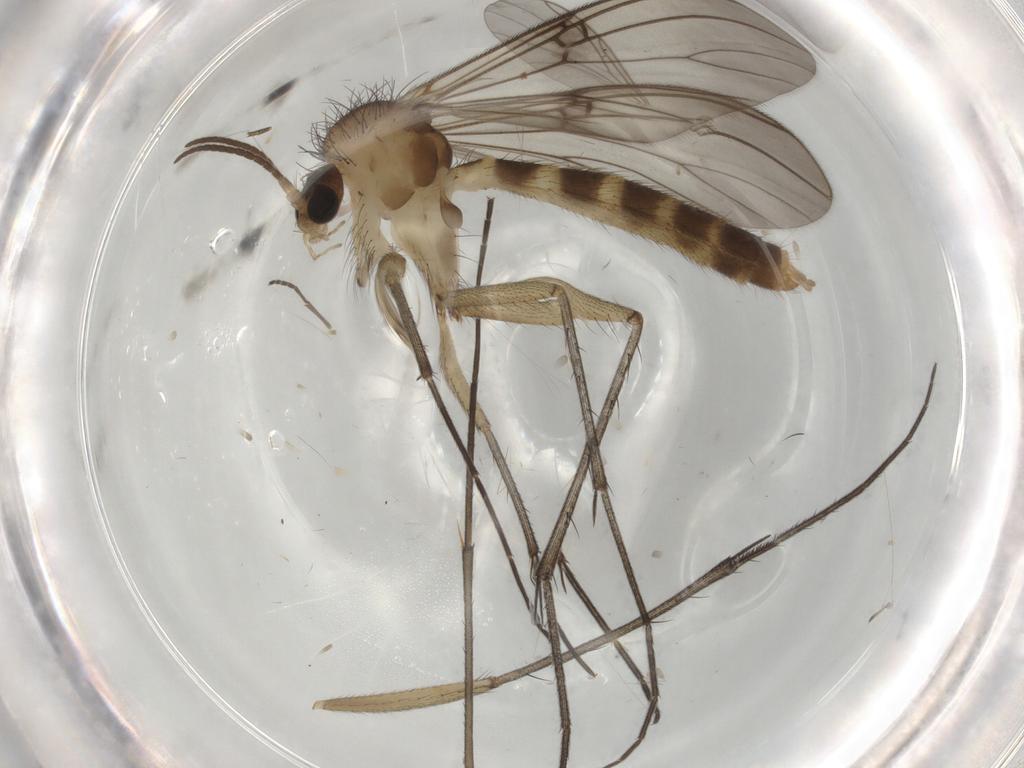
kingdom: Animalia
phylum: Arthropoda
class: Insecta
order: Diptera
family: Mycetophilidae
